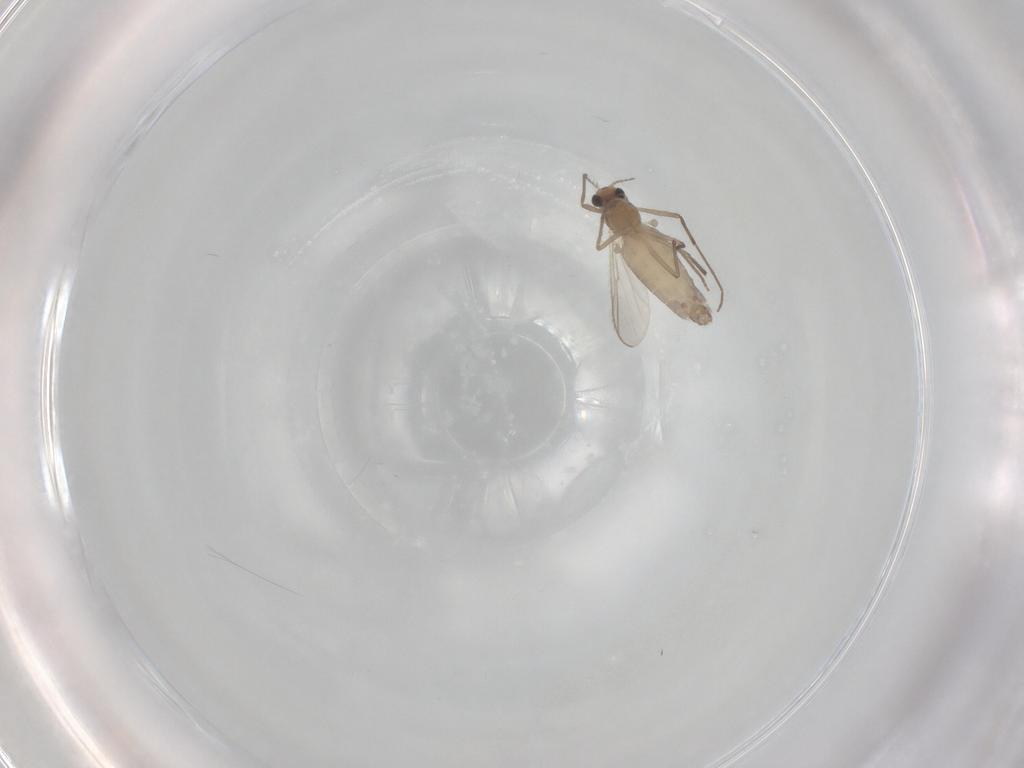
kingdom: Animalia
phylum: Arthropoda
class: Insecta
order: Diptera
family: Chironomidae
